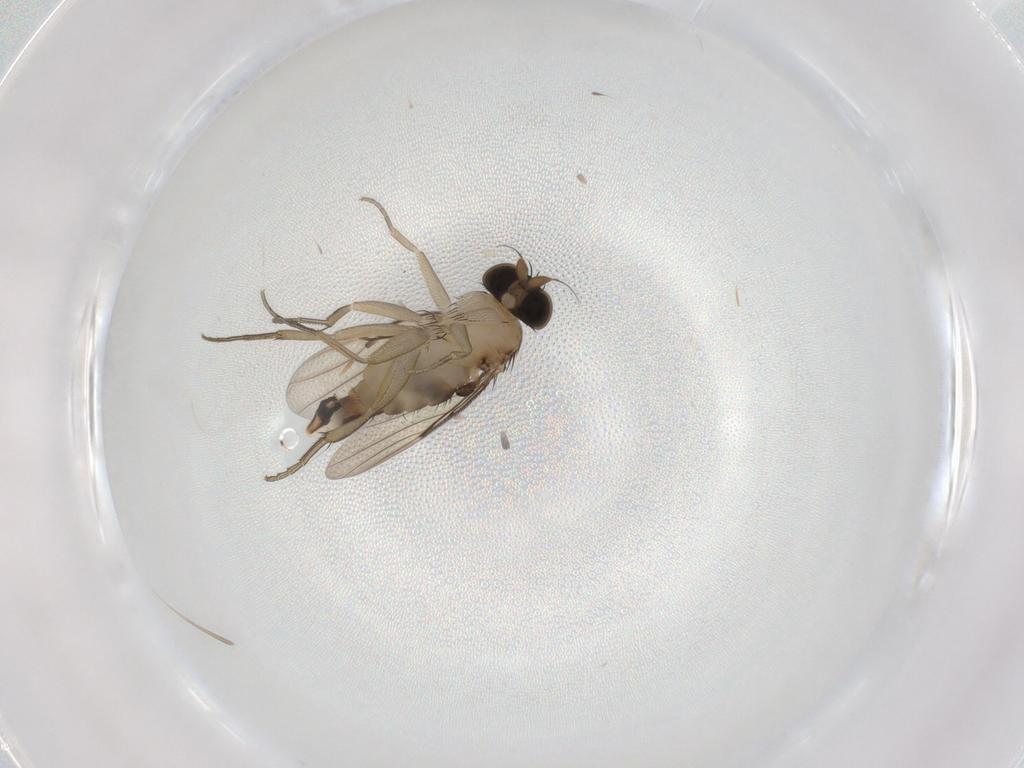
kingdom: Animalia
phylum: Arthropoda
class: Insecta
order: Diptera
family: Phoridae
